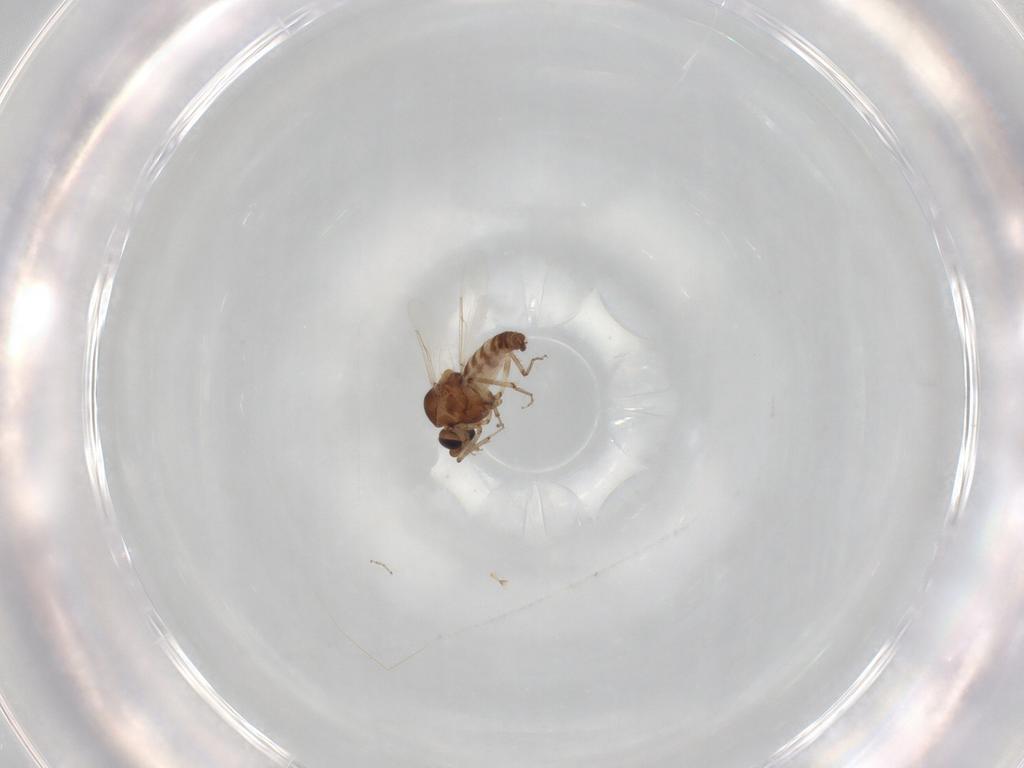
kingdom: Animalia
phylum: Arthropoda
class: Insecta
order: Diptera
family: Ceratopogonidae
